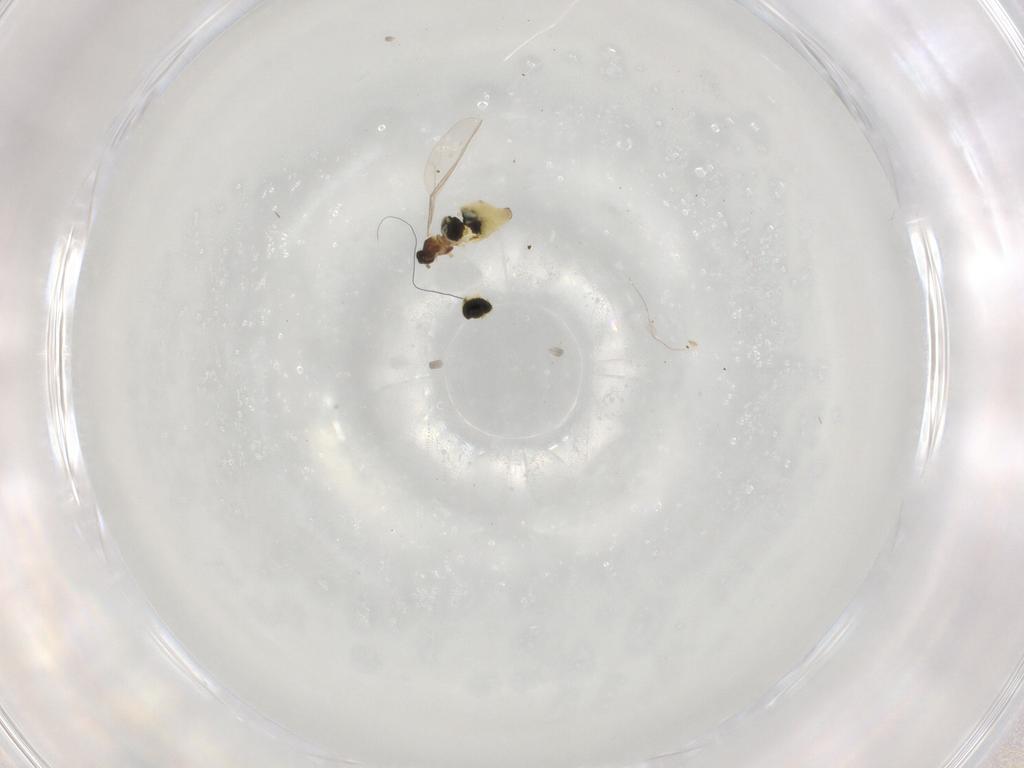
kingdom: Animalia
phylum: Arthropoda
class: Insecta
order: Diptera
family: Cecidomyiidae
